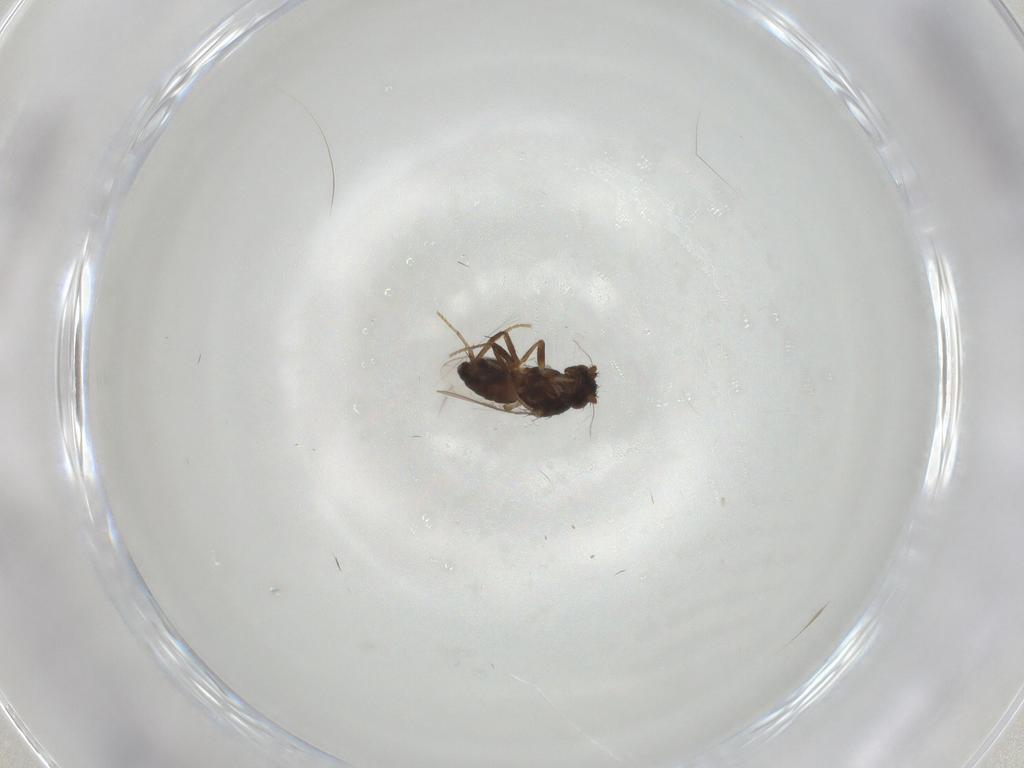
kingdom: Animalia
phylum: Arthropoda
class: Insecta
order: Diptera
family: Sphaeroceridae
